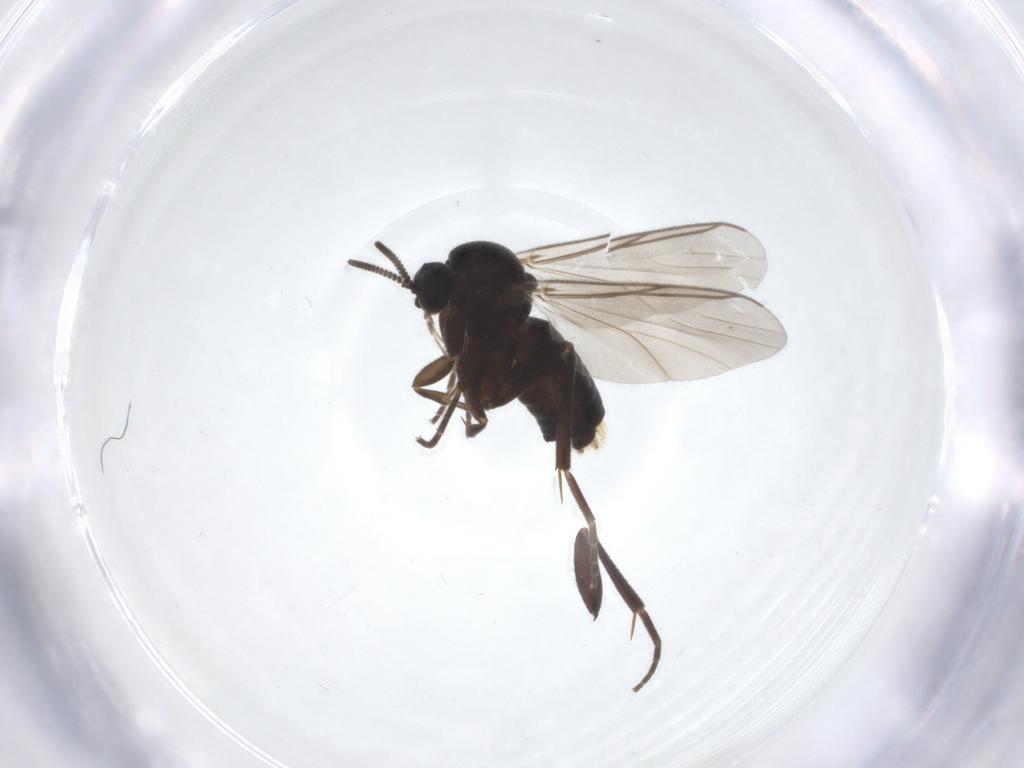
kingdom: Animalia
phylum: Arthropoda
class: Insecta
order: Diptera
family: Mycetophilidae
